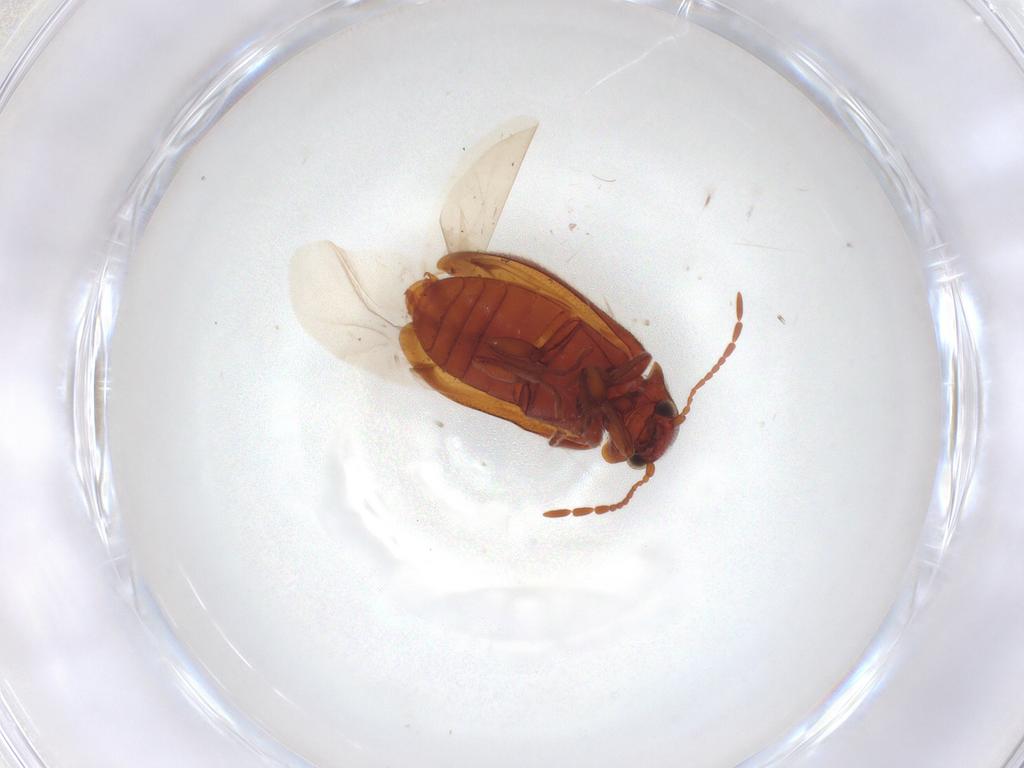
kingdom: Animalia
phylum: Arthropoda
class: Insecta
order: Coleoptera
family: Ptinidae
